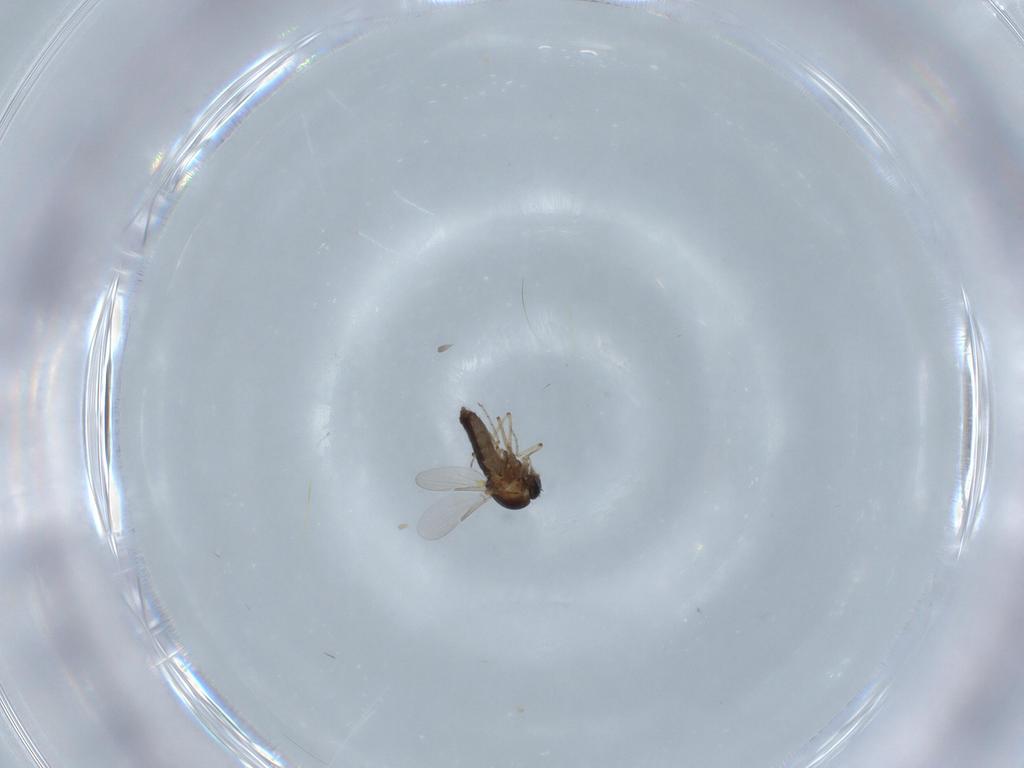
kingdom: Animalia
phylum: Arthropoda
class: Insecta
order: Diptera
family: Ceratopogonidae
